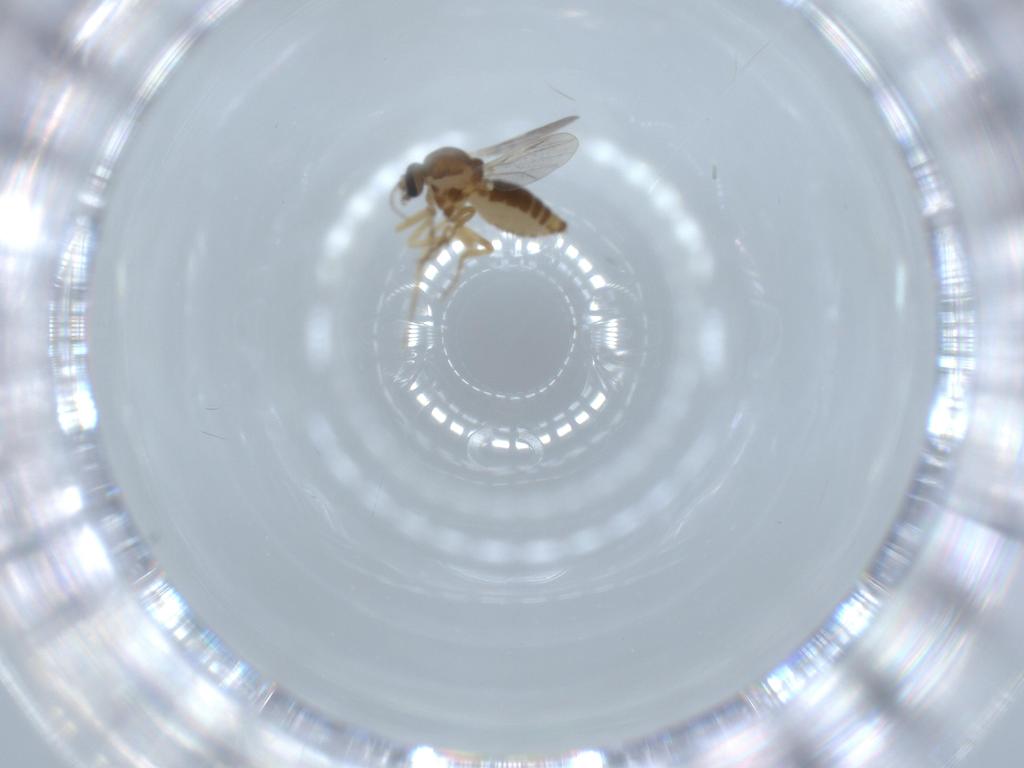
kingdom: Animalia
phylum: Arthropoda
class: Insecta
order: Diptera
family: Ceratopogonidae
